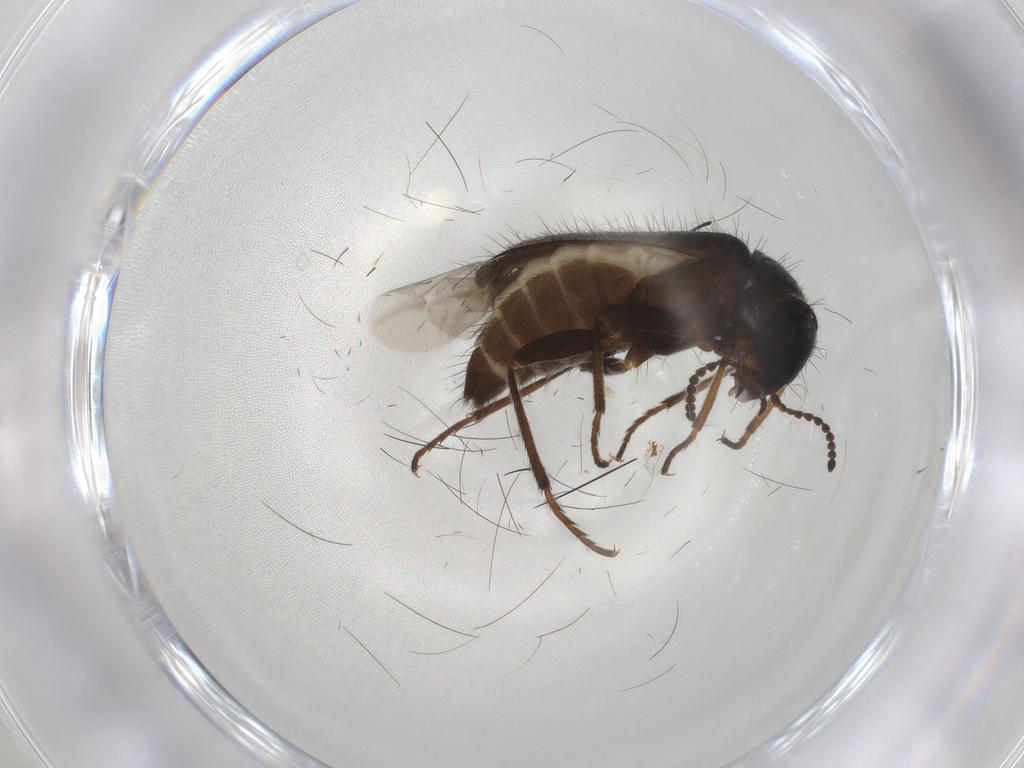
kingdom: Animalia
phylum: Arthropoda
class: Insecta
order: Coleoptera
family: Melyridae
